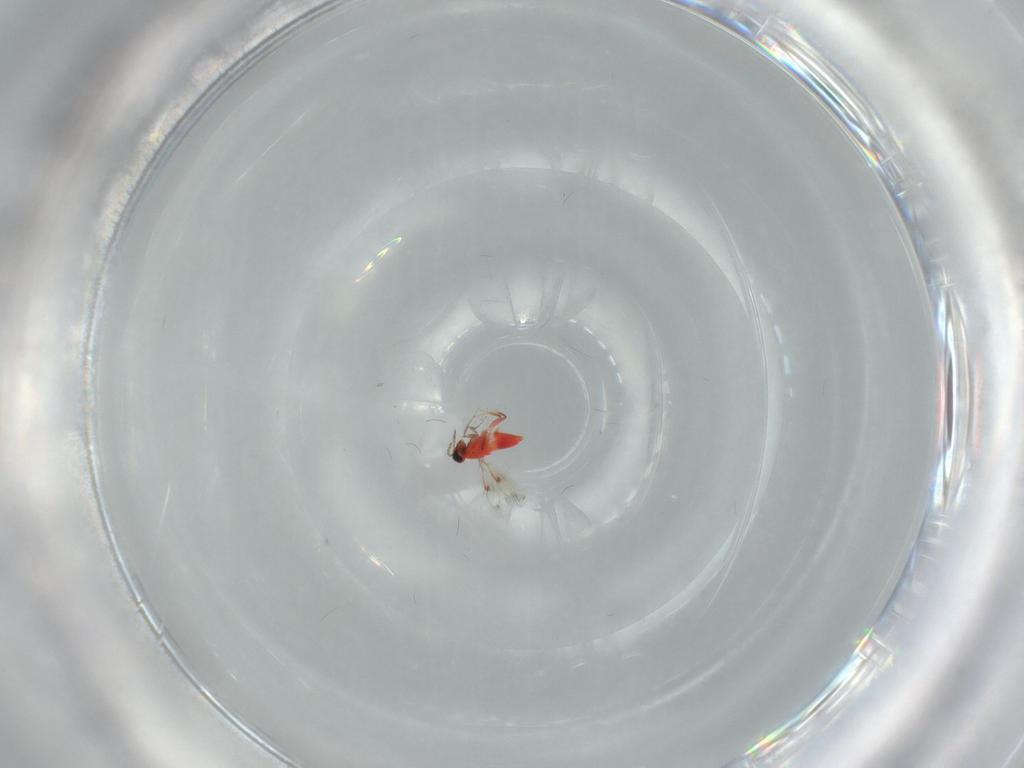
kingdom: Animalia
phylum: Arthropoda
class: Insecta
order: Hymenoptera
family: Trichogrammatidae
